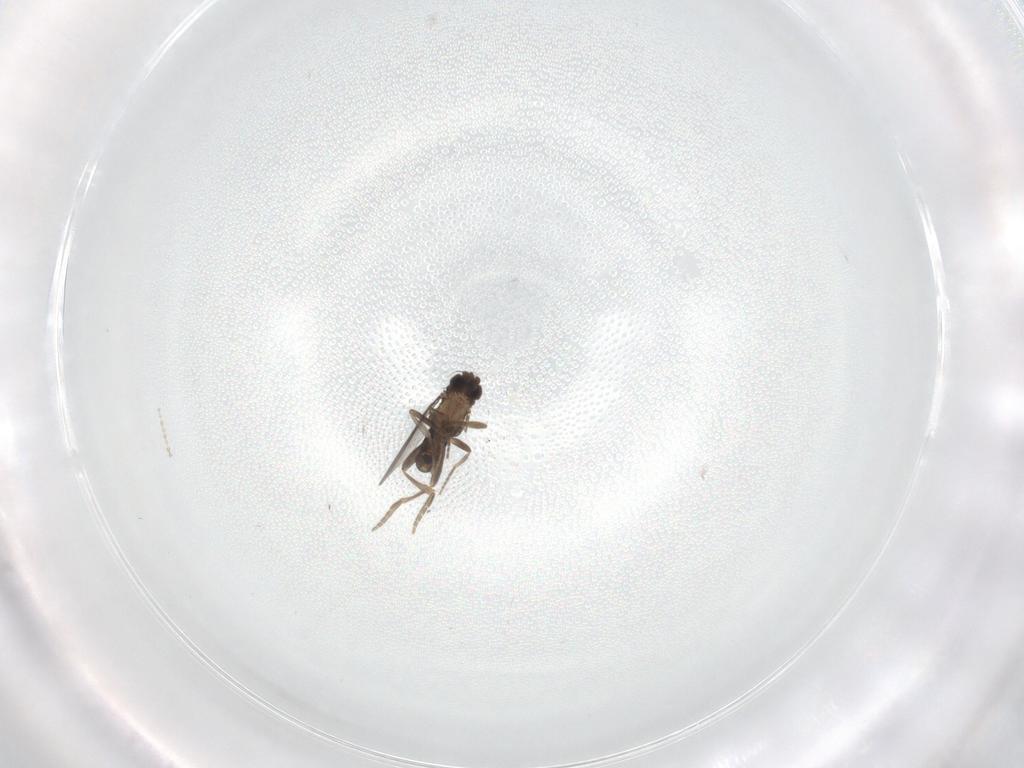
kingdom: Animalia
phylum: Arthropoda
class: Insecta
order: Diptera
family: Cecidomyiidae
